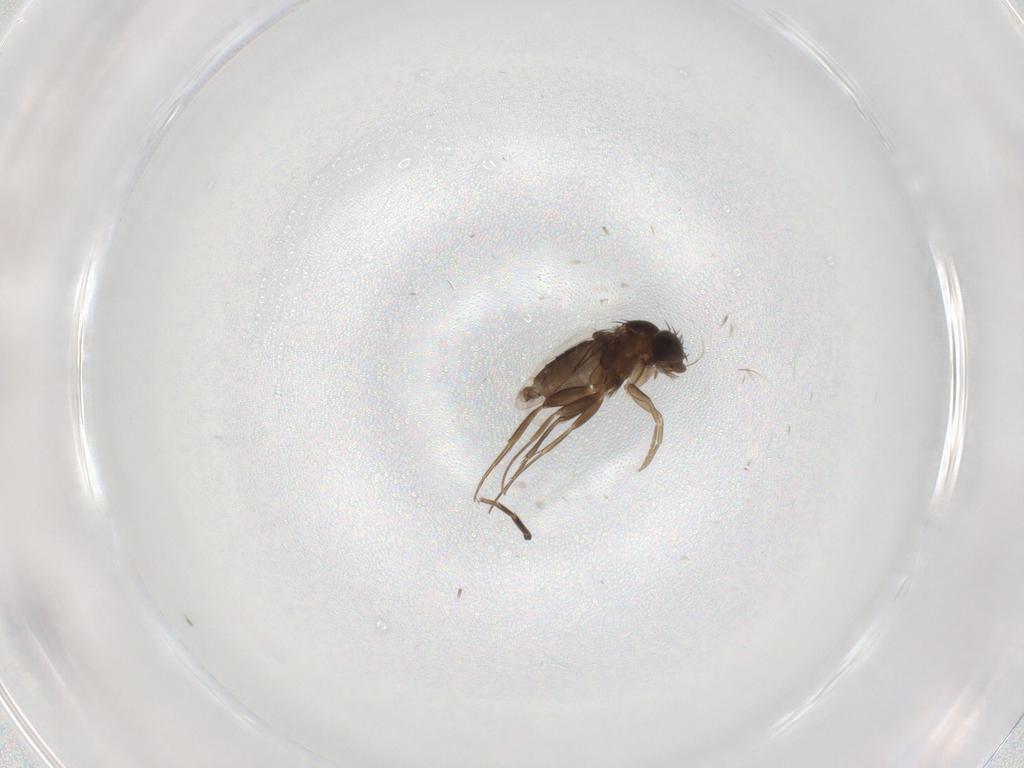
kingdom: Animalia
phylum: Arthropoda
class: Insecta
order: Diptera
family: Phoridae
